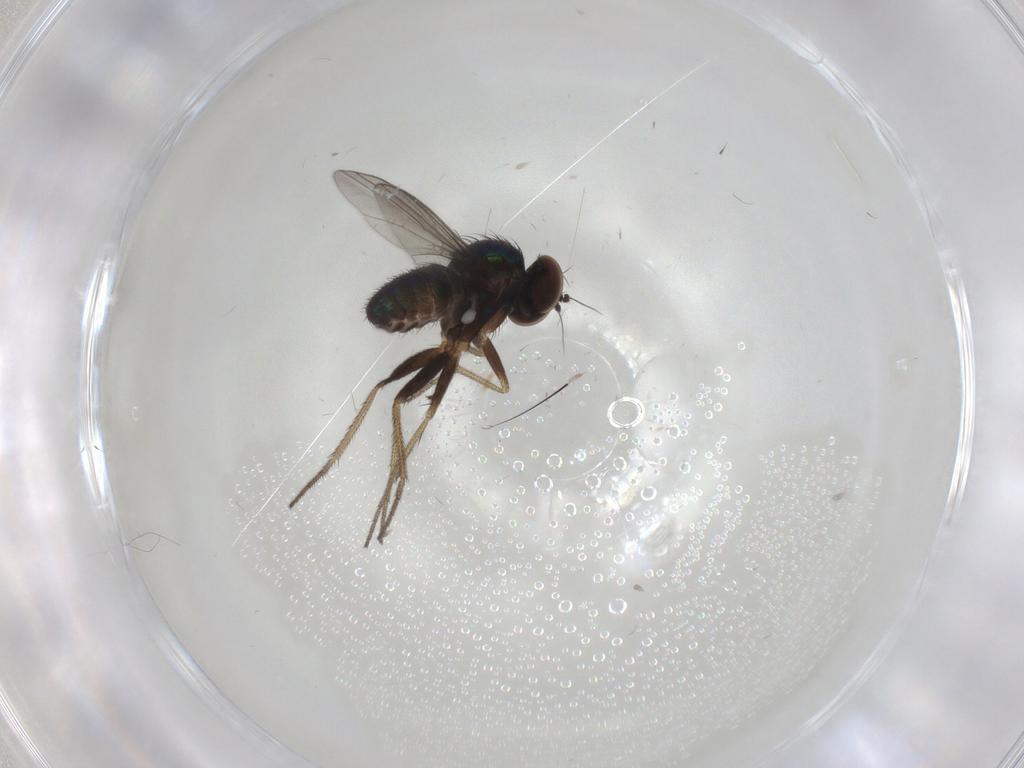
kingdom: Animalia
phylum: Arthropoda
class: Insecta
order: Diptera
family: Dolichopodidae
